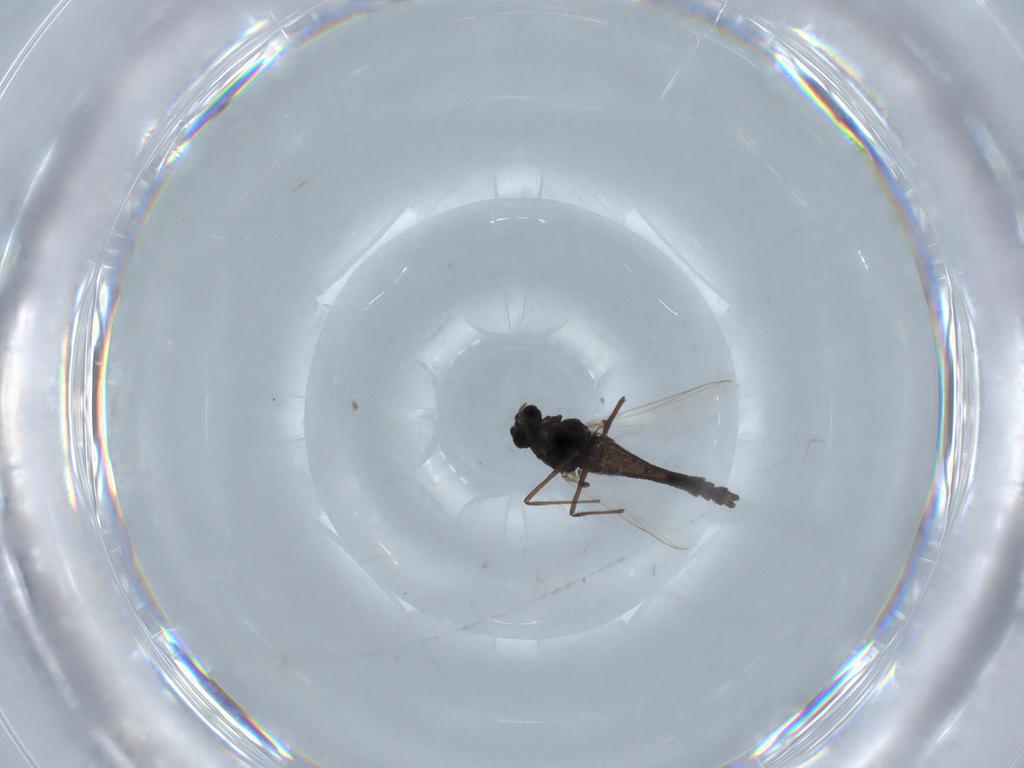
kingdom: Animalia
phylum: Arthropoda
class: Insecta
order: Diptera
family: Chironomidae
